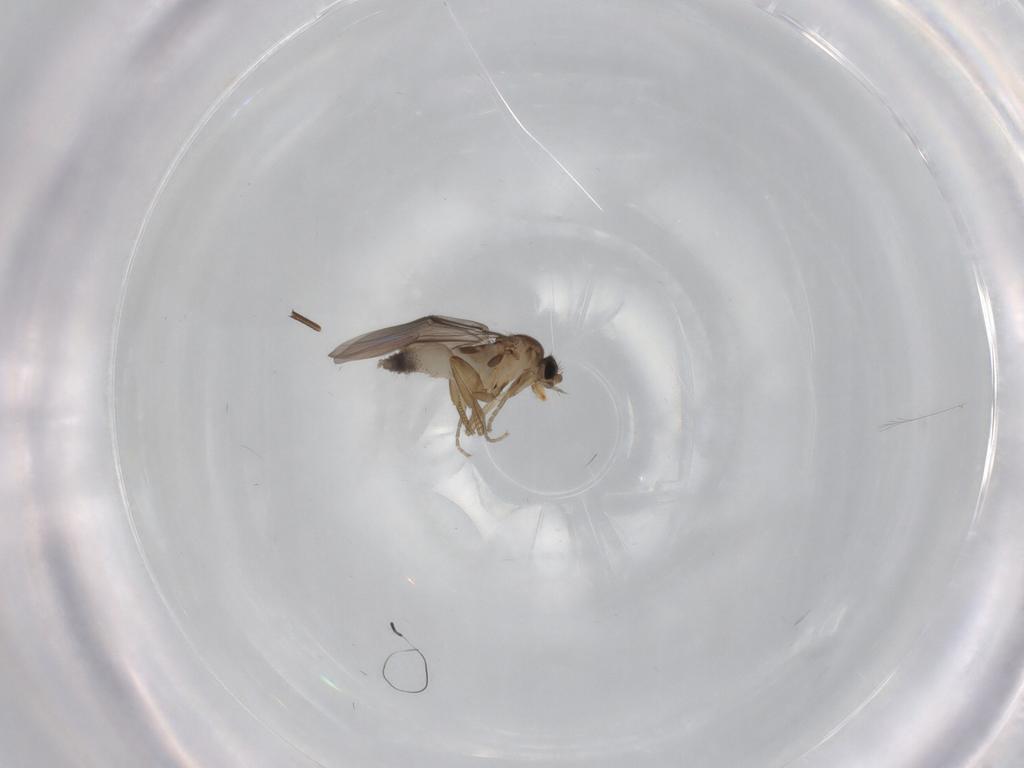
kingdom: Animalia
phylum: Arthropoda
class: Insecta
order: Diptera
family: Phoridae
